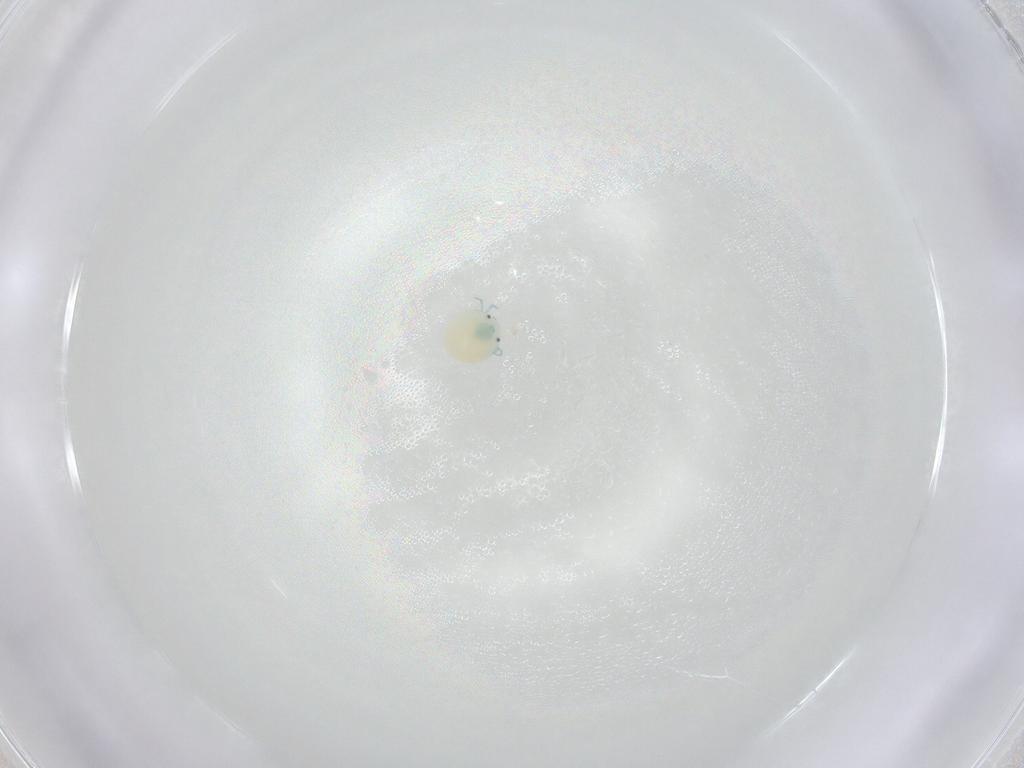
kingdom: Animalia
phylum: Arthropoda
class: Arachnida
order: Trombidiformes
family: Arrenuridae
